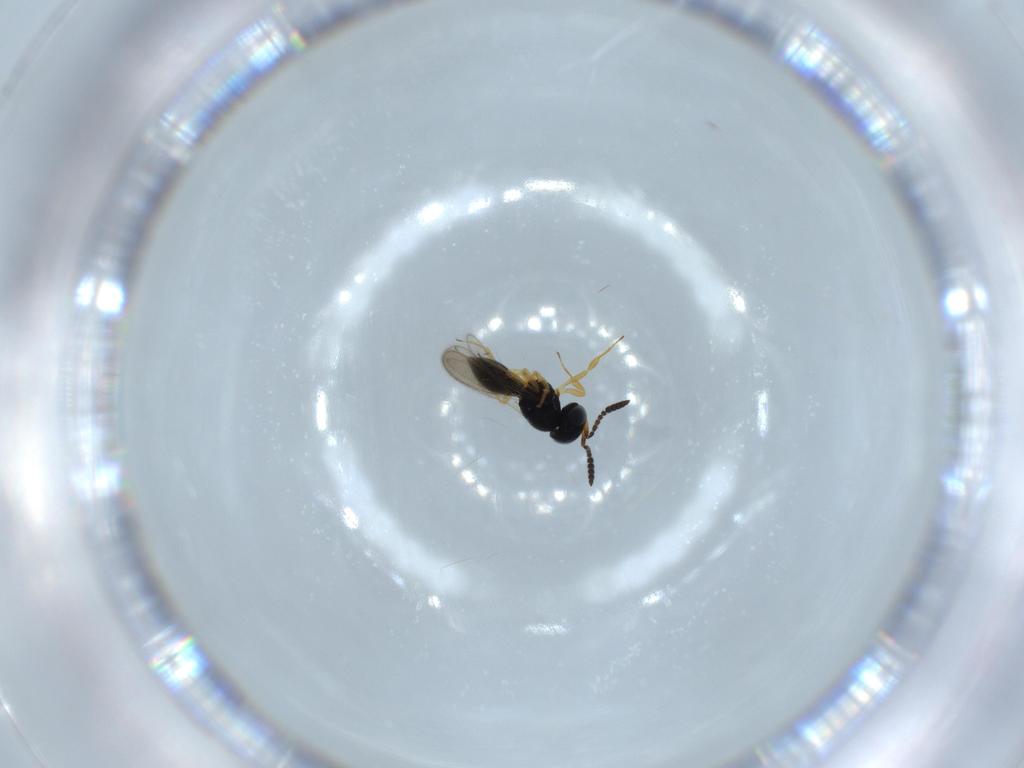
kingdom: Animalia
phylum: Arthropoda
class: Insecta
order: Hymenoptera
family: Scelionidae
